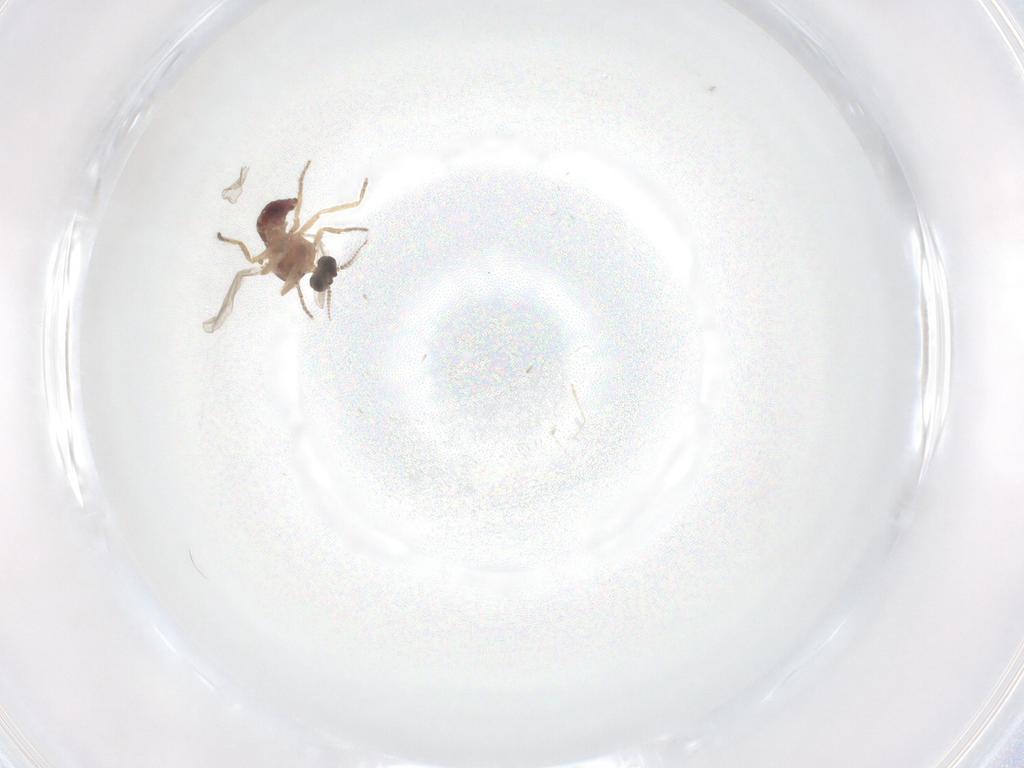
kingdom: Animalia
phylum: Arthropoda
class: Insecta
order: Diptera
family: Ceratopogonidae
